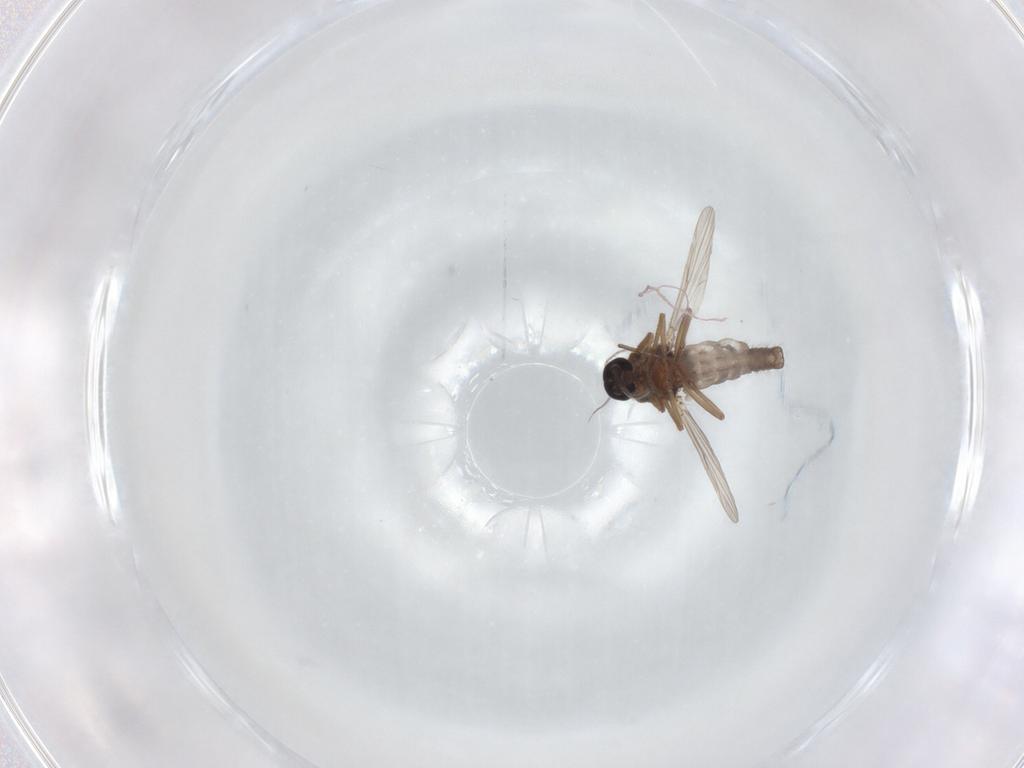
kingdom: Animalia
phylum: Arthropoda
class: Insecta
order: Diptera
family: Ceratopogonidae
